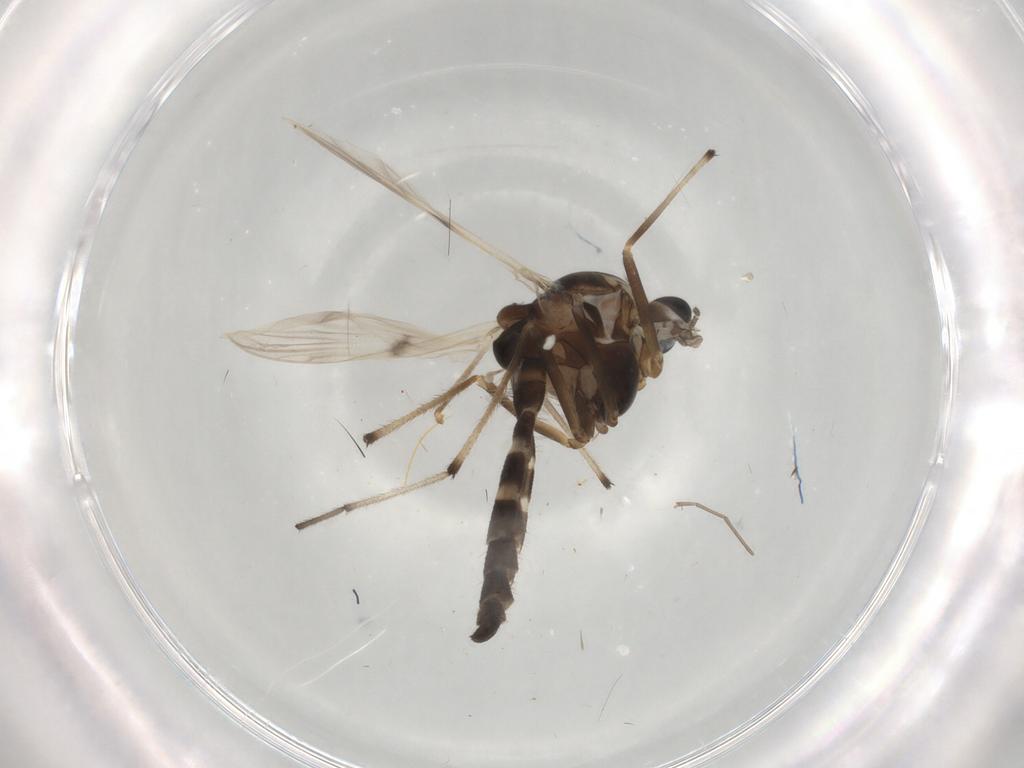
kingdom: Animalia
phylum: Arthropoda
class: Insecta
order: Diptera
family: Chironomidae
